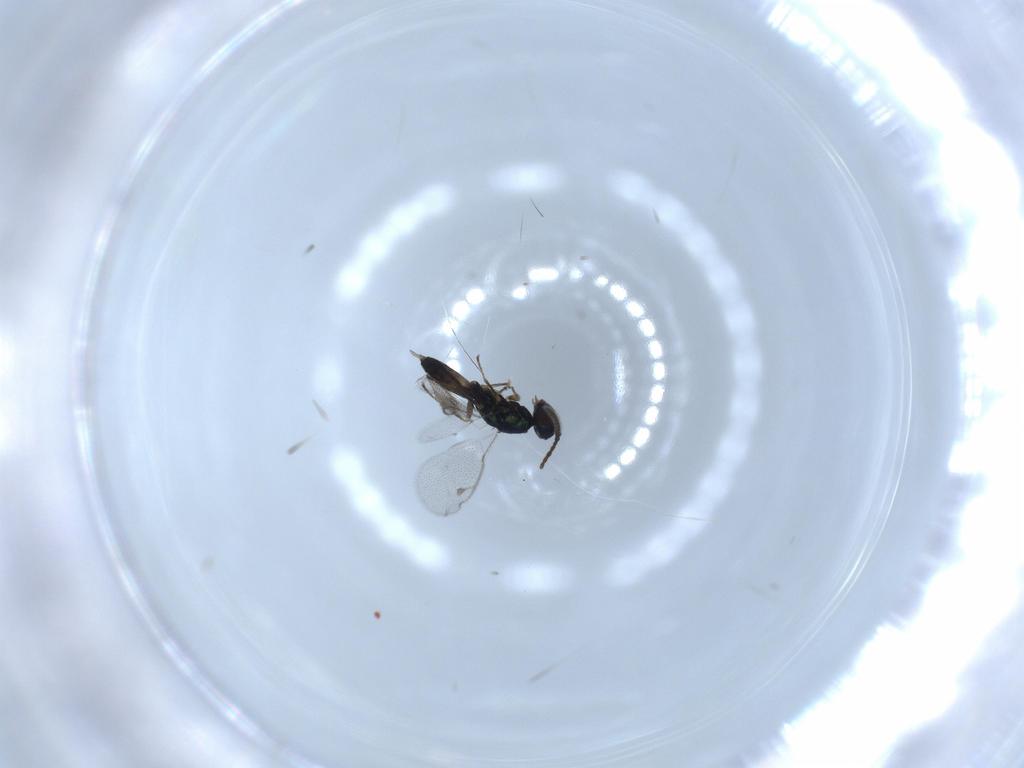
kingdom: Animalia
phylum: Arthropoda
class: Insecta
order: Hymenoptera
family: Pteromalidae
